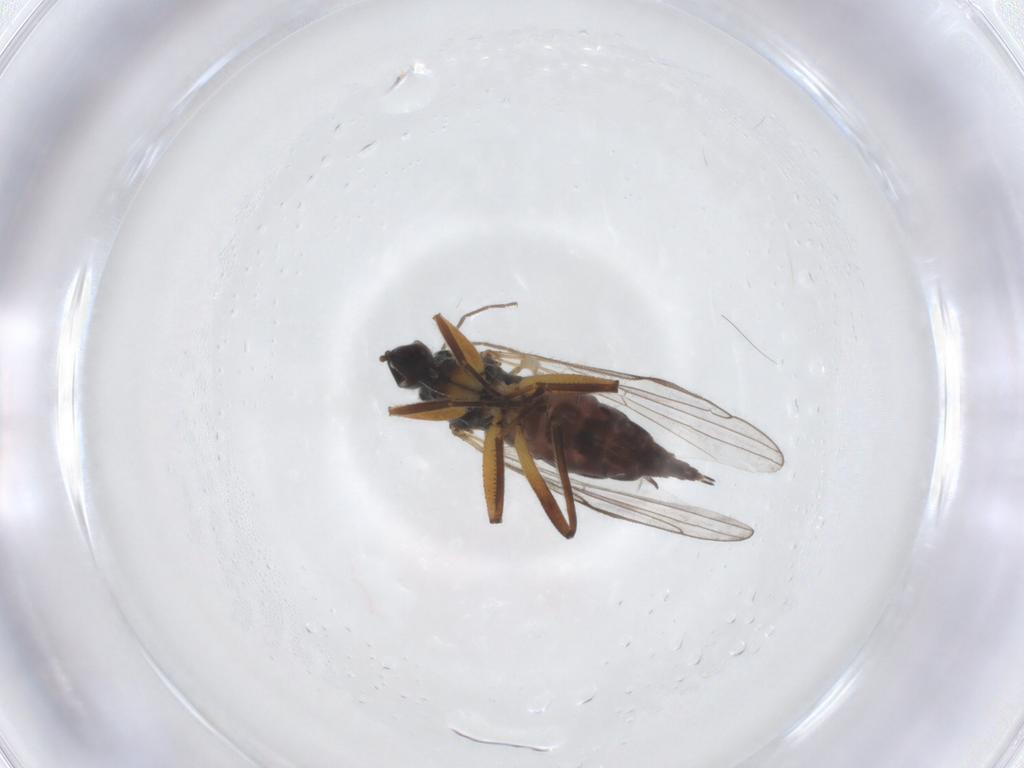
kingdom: Animalia
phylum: Arthropoda
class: Insecta
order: Diptera
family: Hybotidae
